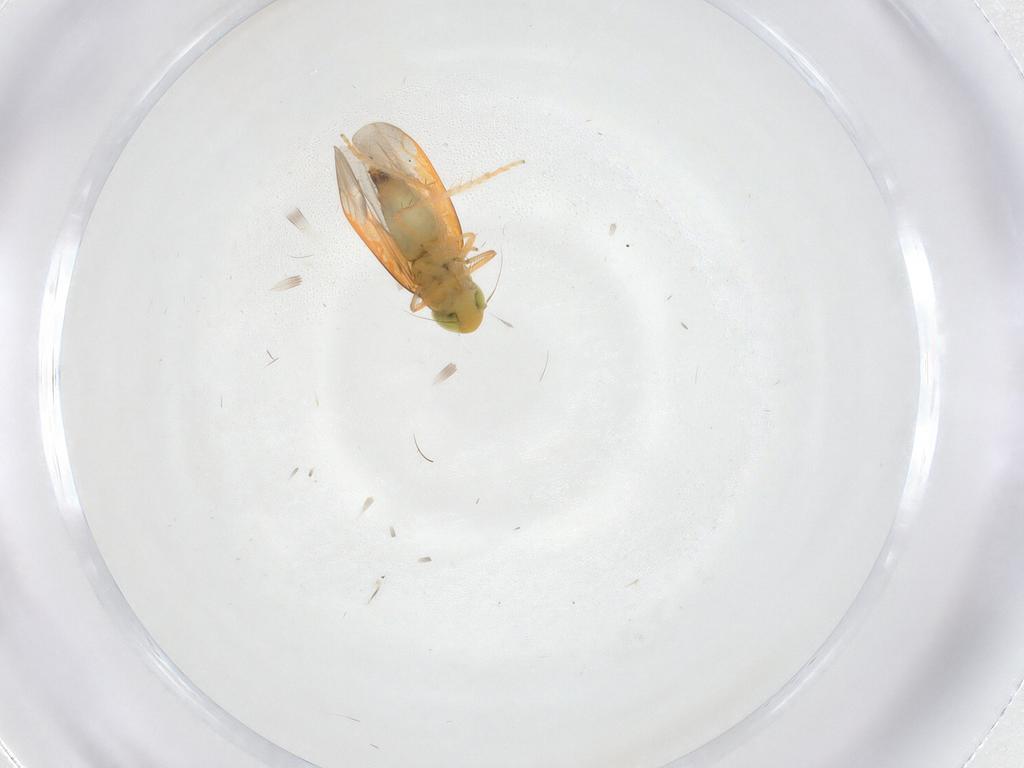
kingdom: Animalia
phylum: Arthropoda
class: Insecta
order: Hemiptera
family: Cicadellidae
